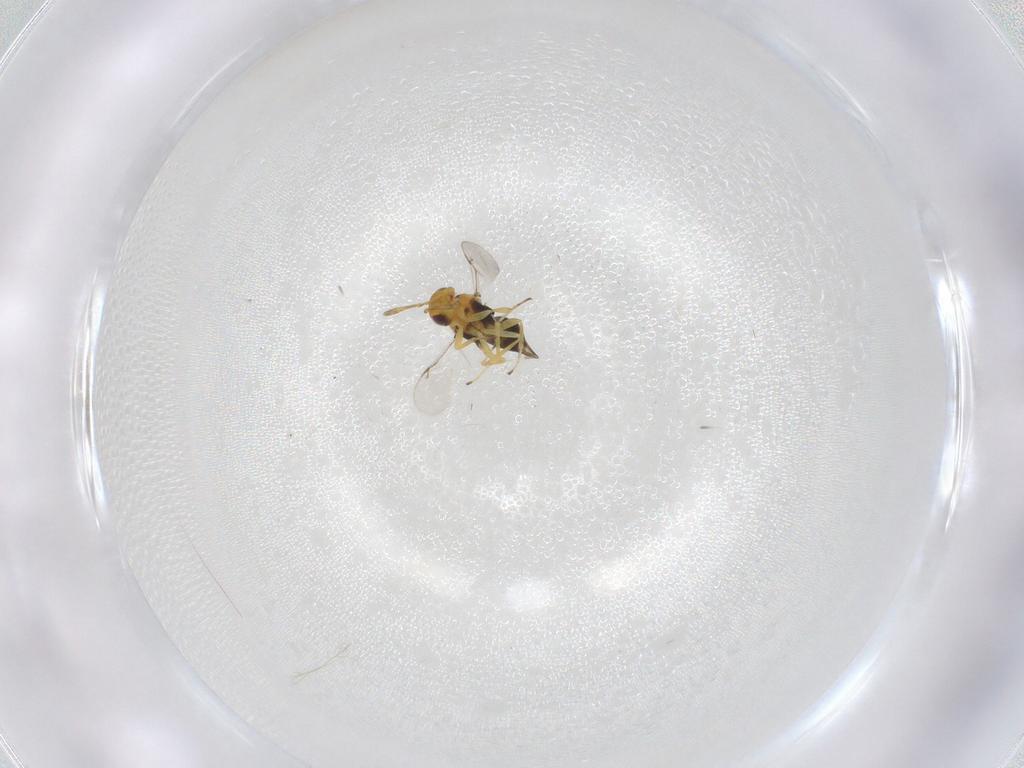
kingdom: Animalia
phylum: Arthropoda
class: Insecta
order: Hymenoptera
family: Encyrtidae
